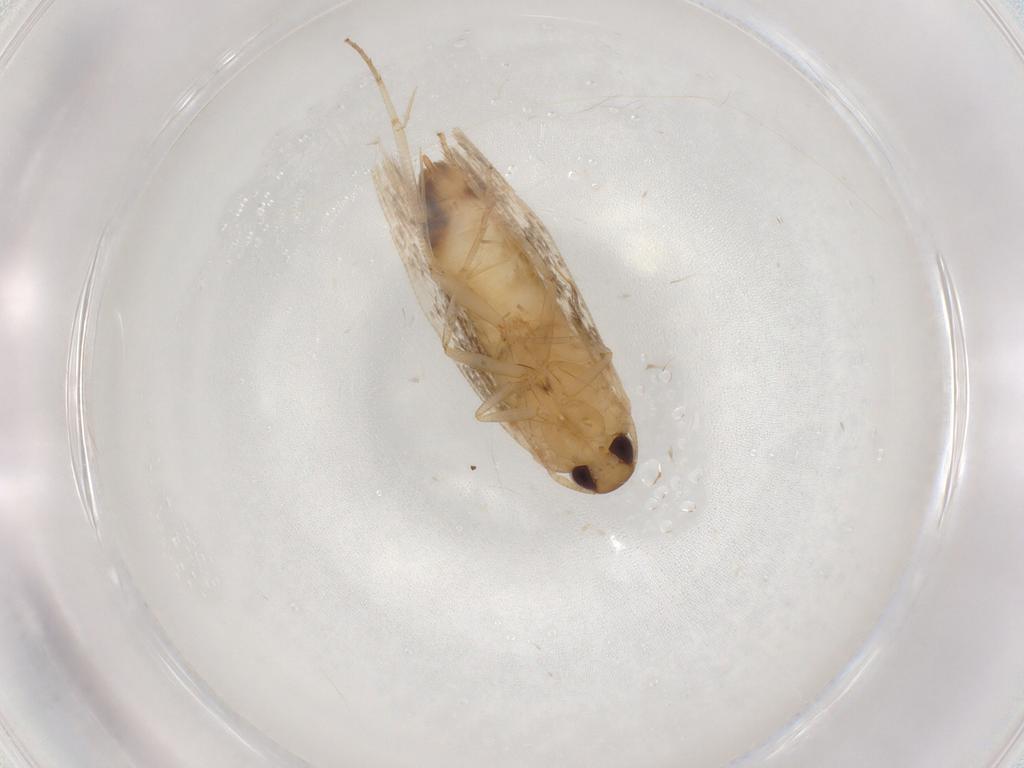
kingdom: Animalia
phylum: Arthropoda
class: Insecta
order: Lepidoptera
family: Cosmopterigidae
